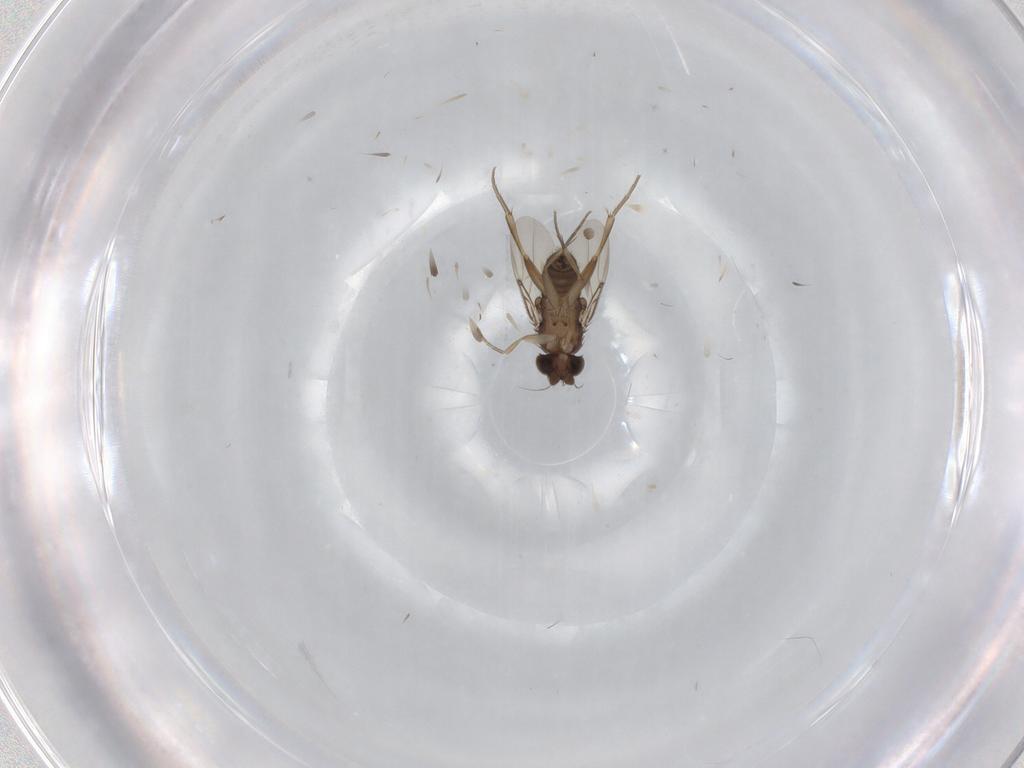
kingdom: Animalia
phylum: Arthropoda
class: Insecta
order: Diptera
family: Phoridae
